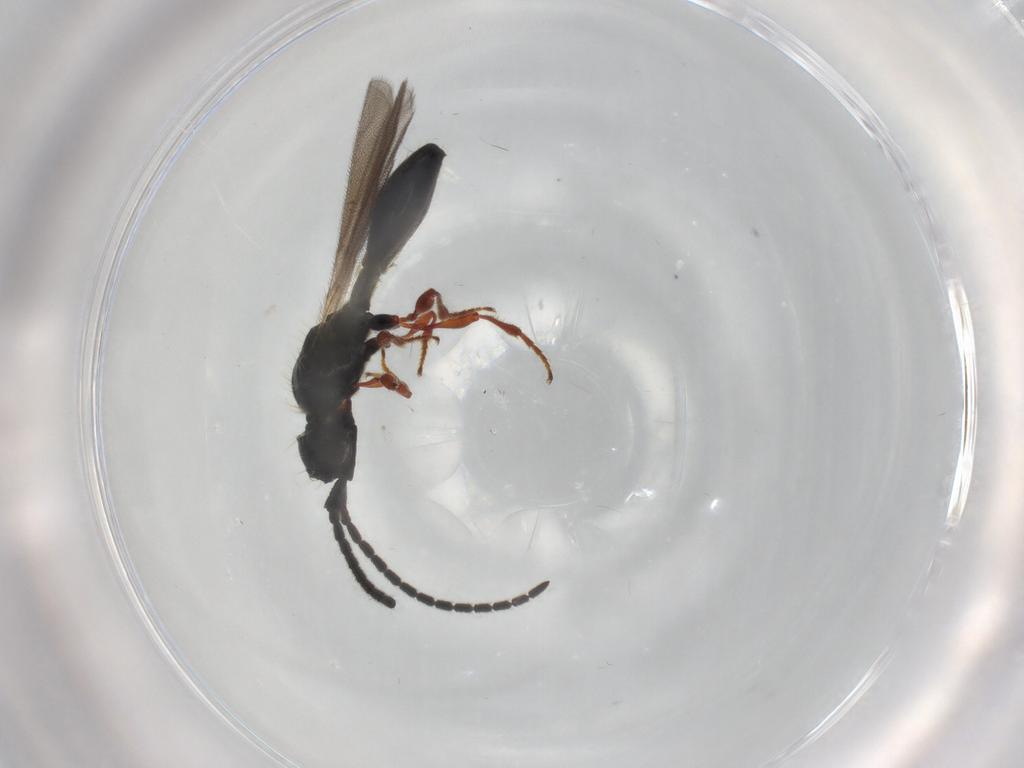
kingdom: Animalia
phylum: Arthropoda
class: Insecta
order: Hymenoptera
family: Diapriidae
